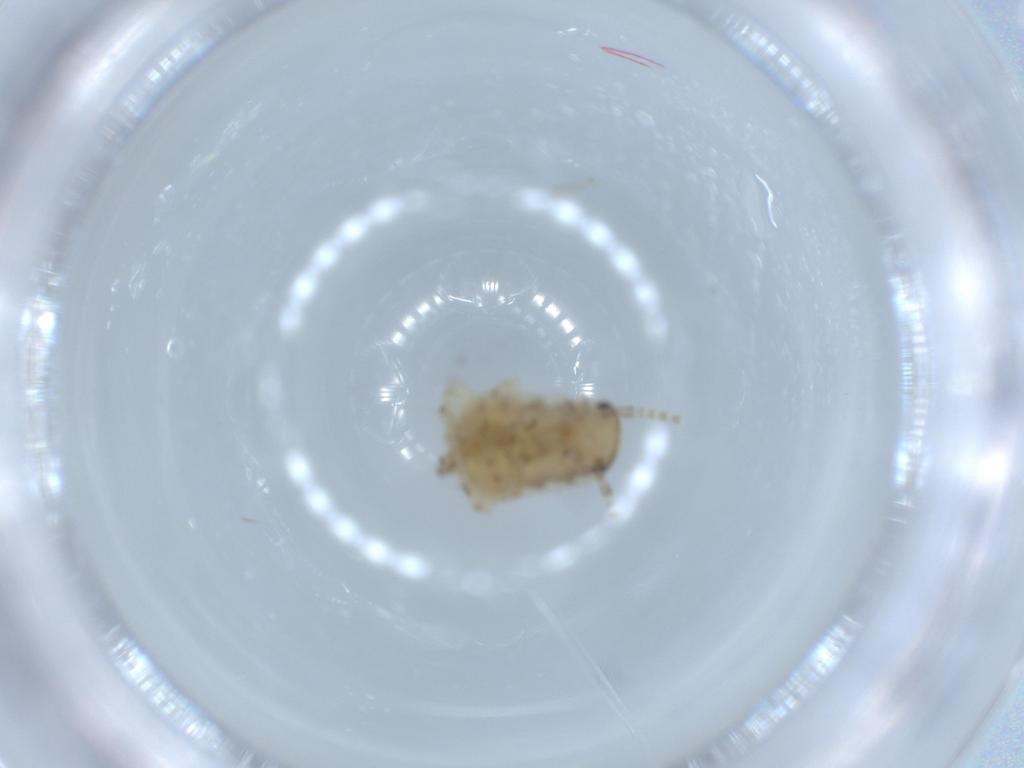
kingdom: Animalia
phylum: Arthropoda
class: Insecta
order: Blattodea
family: Ectobiidae
